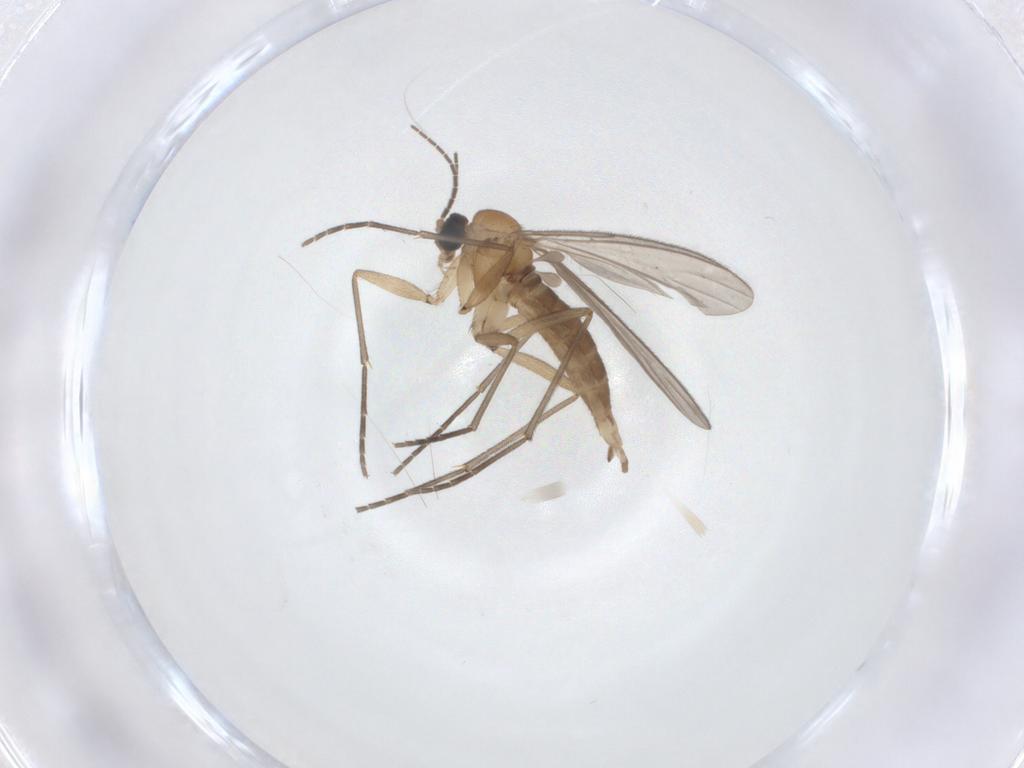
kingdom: Animalia
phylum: Arthropoda
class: Insecta
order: Diptera
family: Sciaridae
